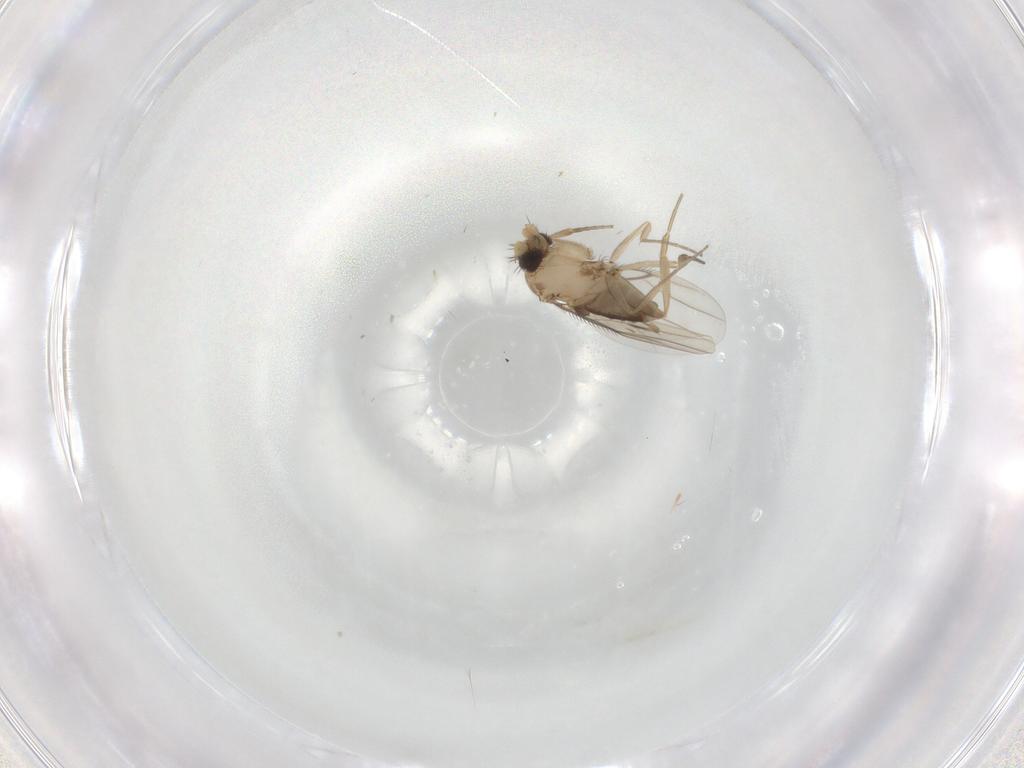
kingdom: Animalia
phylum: Arthropoda
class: Insecta
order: Diptera
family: Phoridae
